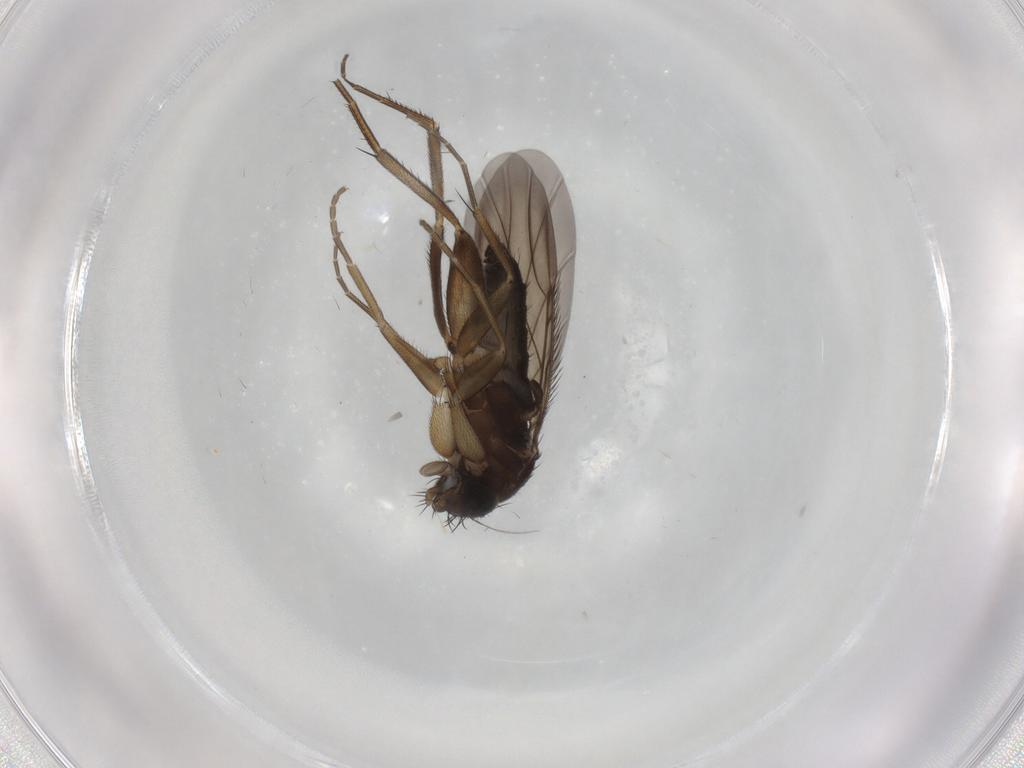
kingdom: Animalia
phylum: Arthropoda
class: Insecta
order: Diptera
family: Phoridae
